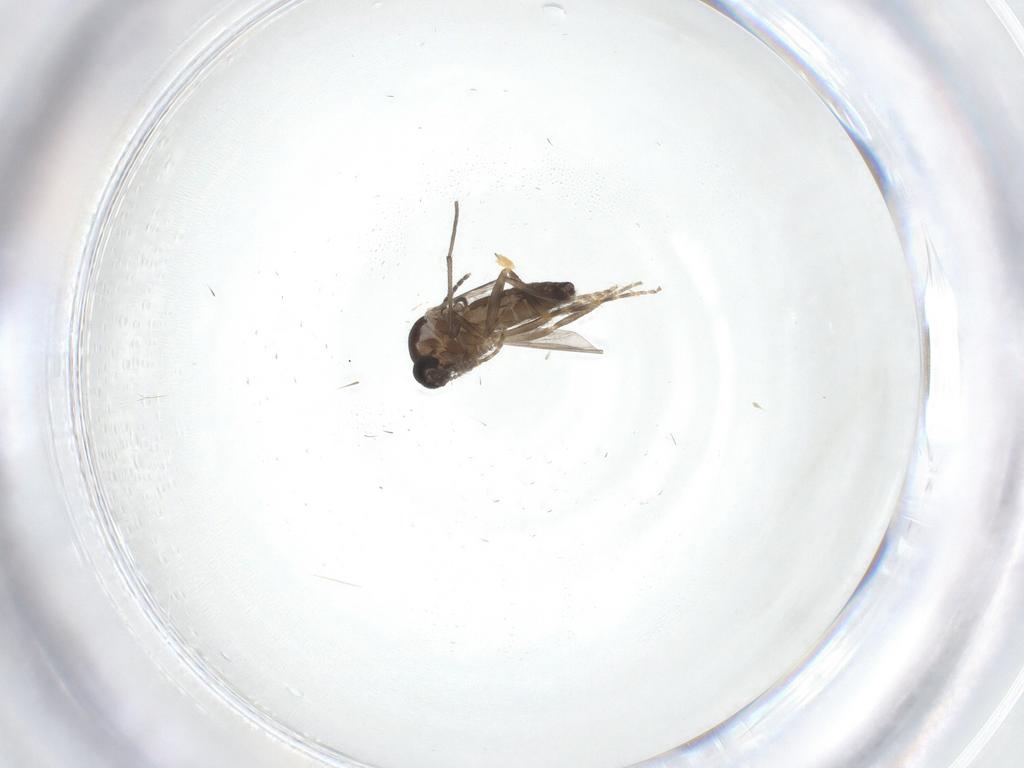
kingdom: Animalia
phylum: Arthropoda
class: Insecta
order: Diptera
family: Ceratopogonidae
